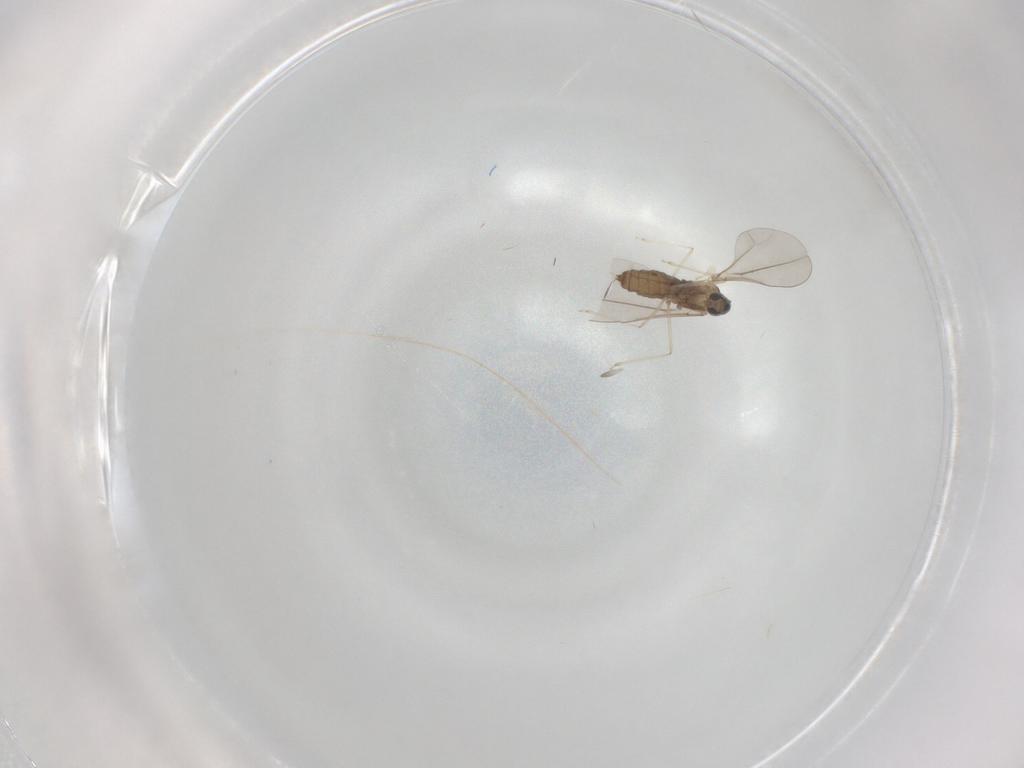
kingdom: Animalia
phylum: Arthropoda
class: Insecta
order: Diptera
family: Cecidomyiidae
